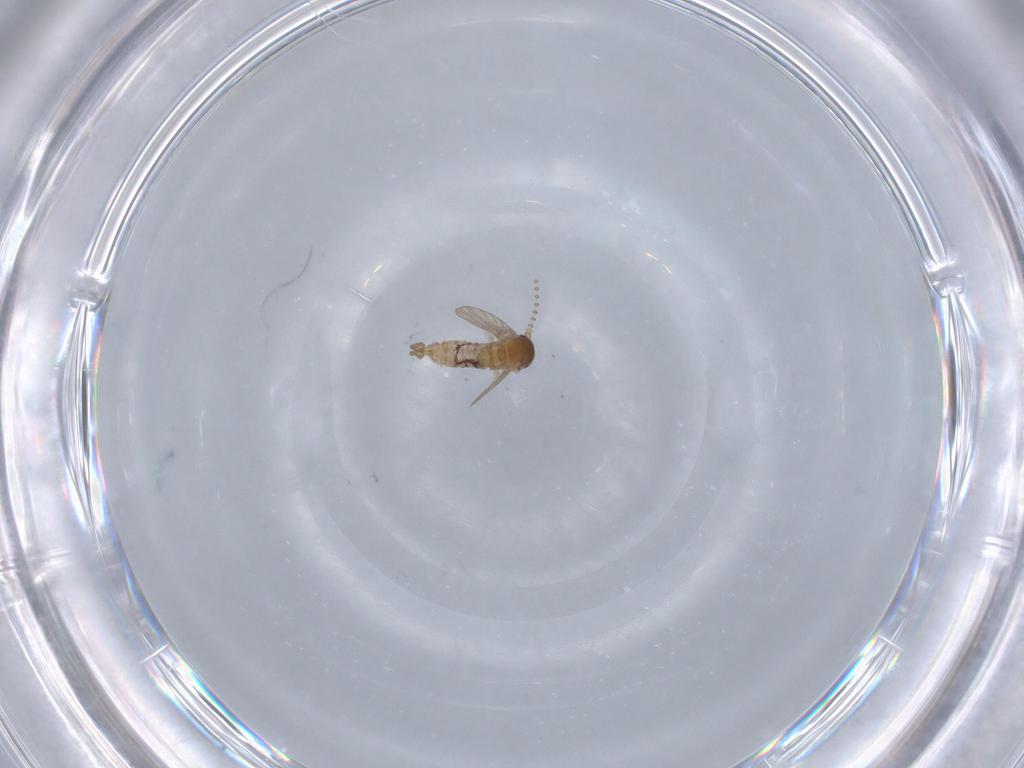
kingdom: Animalia
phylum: Arthropoda
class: Insecta
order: Diptera
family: Psychodidae
